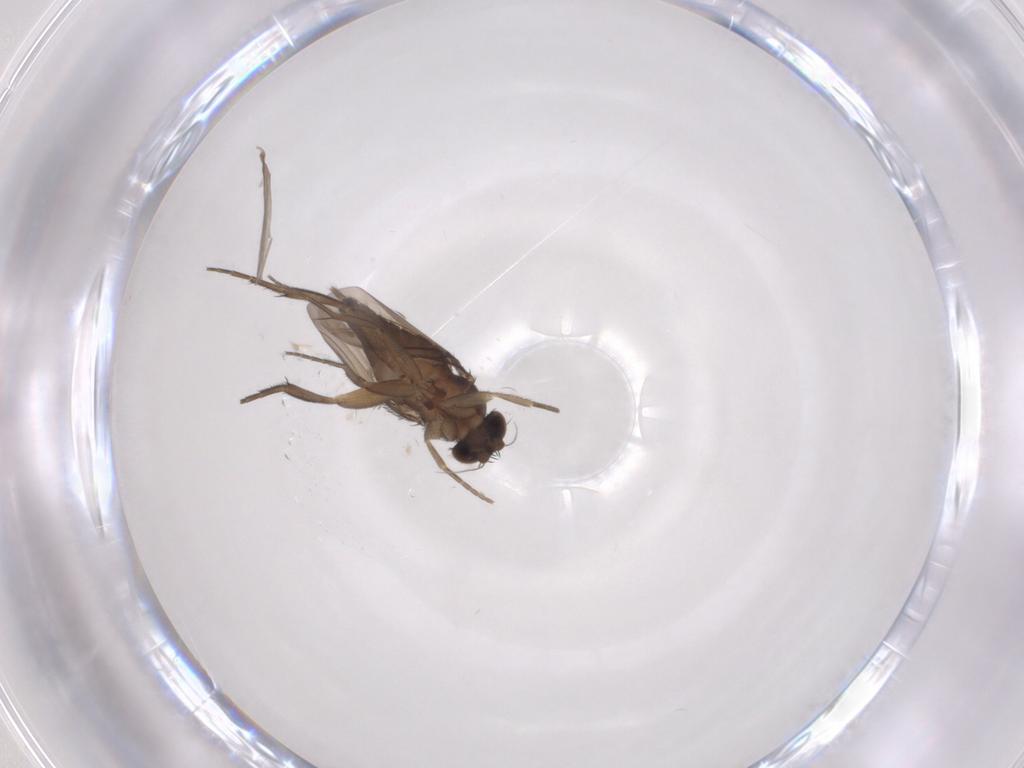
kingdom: Animalia
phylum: Arthropoda
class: Insecta
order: Diptera
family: Phoridae
